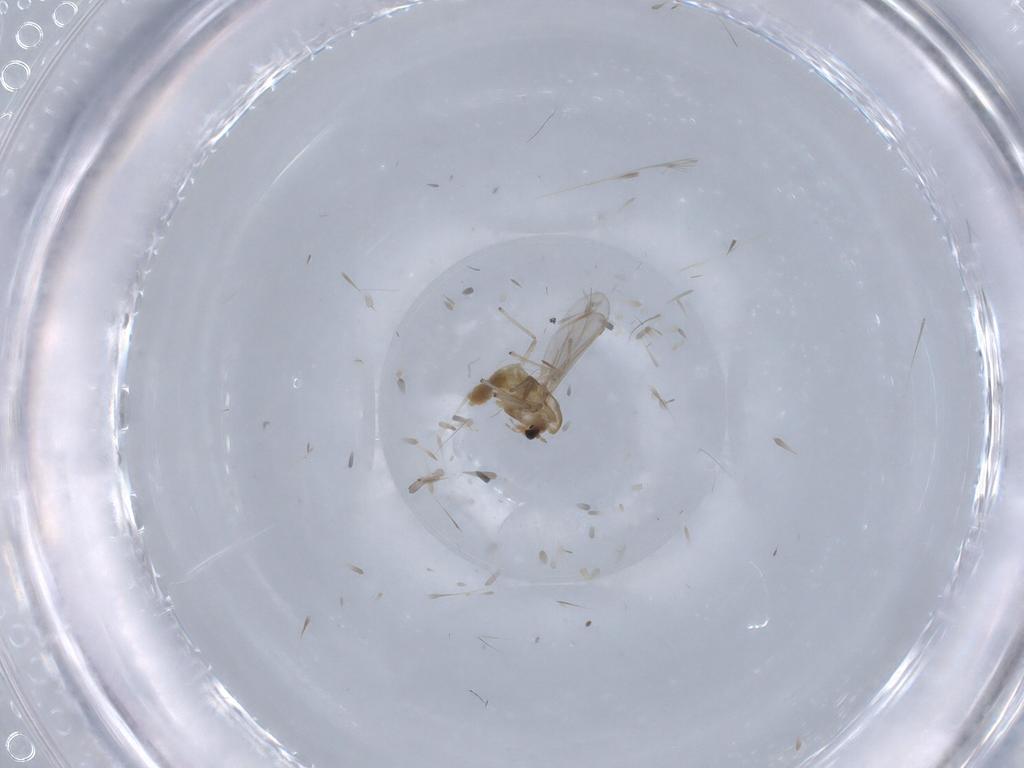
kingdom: Animalia
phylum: Arthropoda
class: Insecta
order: Diptera
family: Chironomidae
